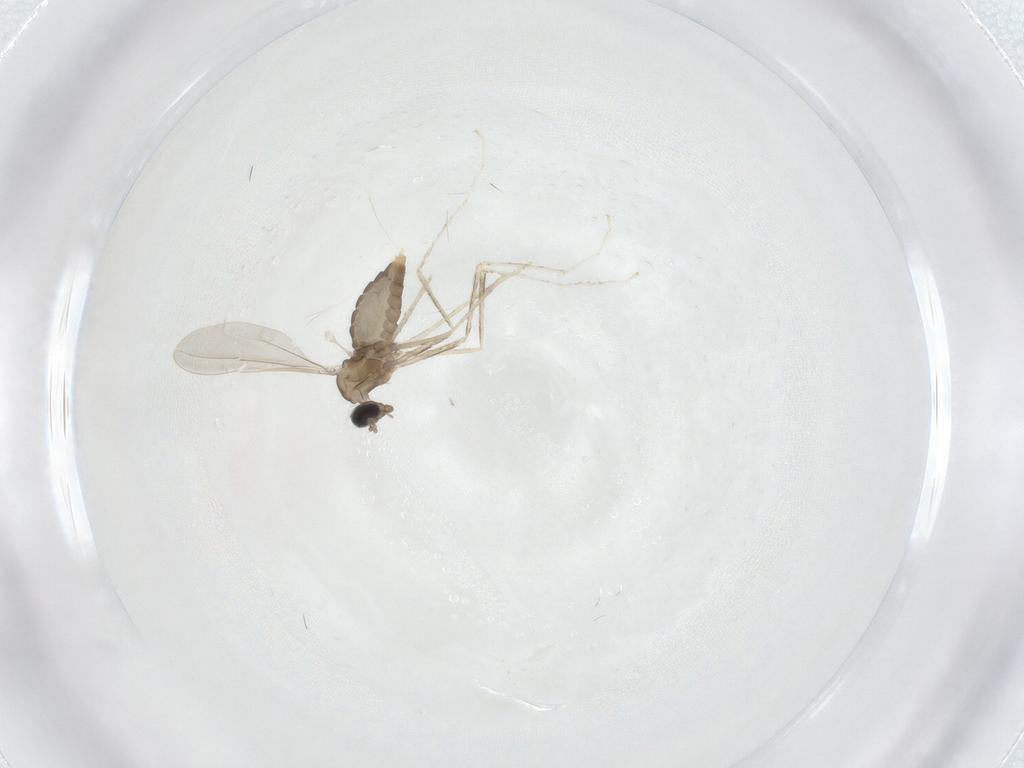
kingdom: Animalia
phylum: Arthropoda
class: Insecta
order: Diptera
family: Cecidomyiidae
